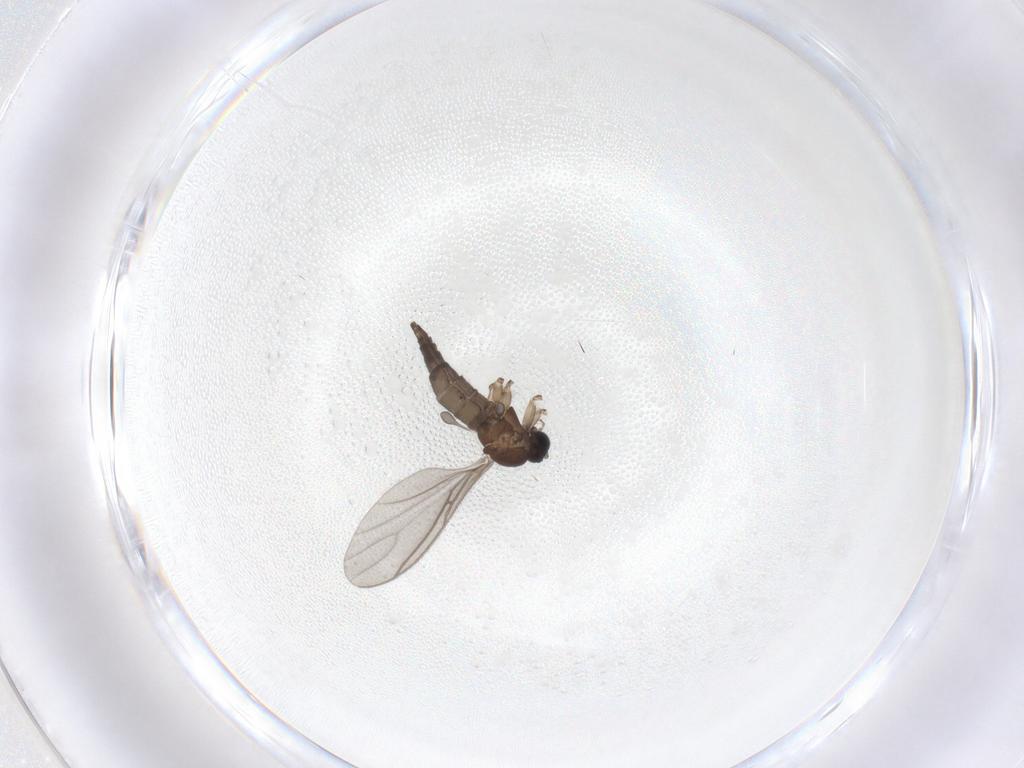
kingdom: Animalia
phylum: Arthropoda
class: Insecta
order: Diptera
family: Sciaridae
